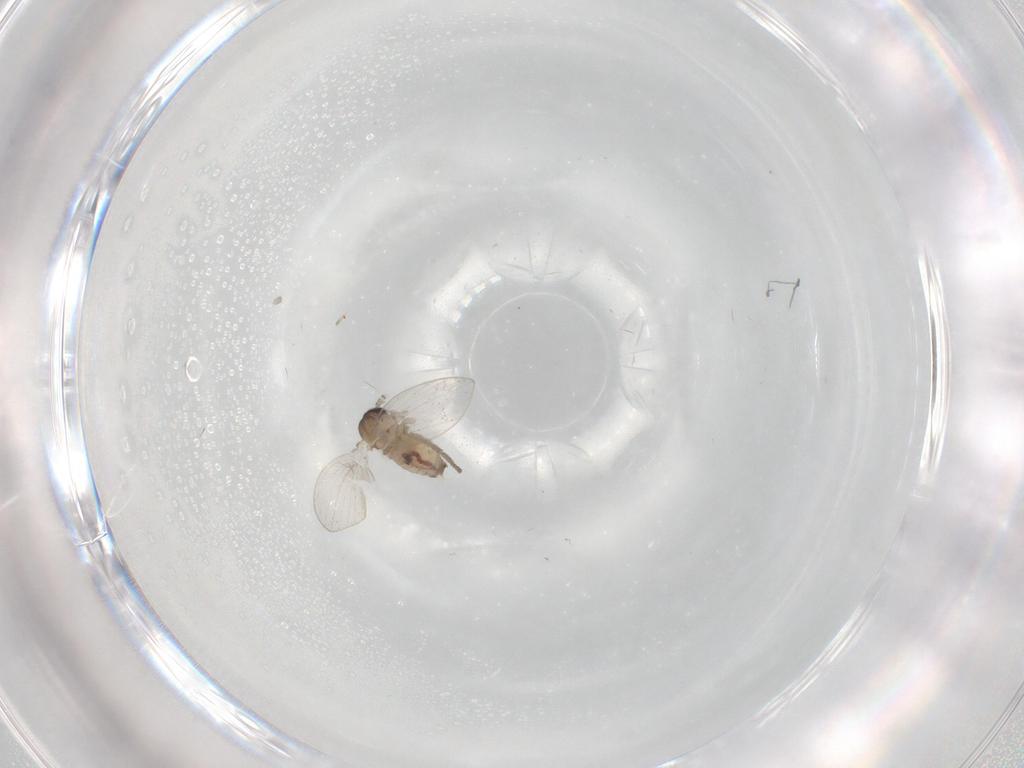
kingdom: Animalia
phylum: Arthropoda
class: Insecta
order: Diptera
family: Psychodidae
